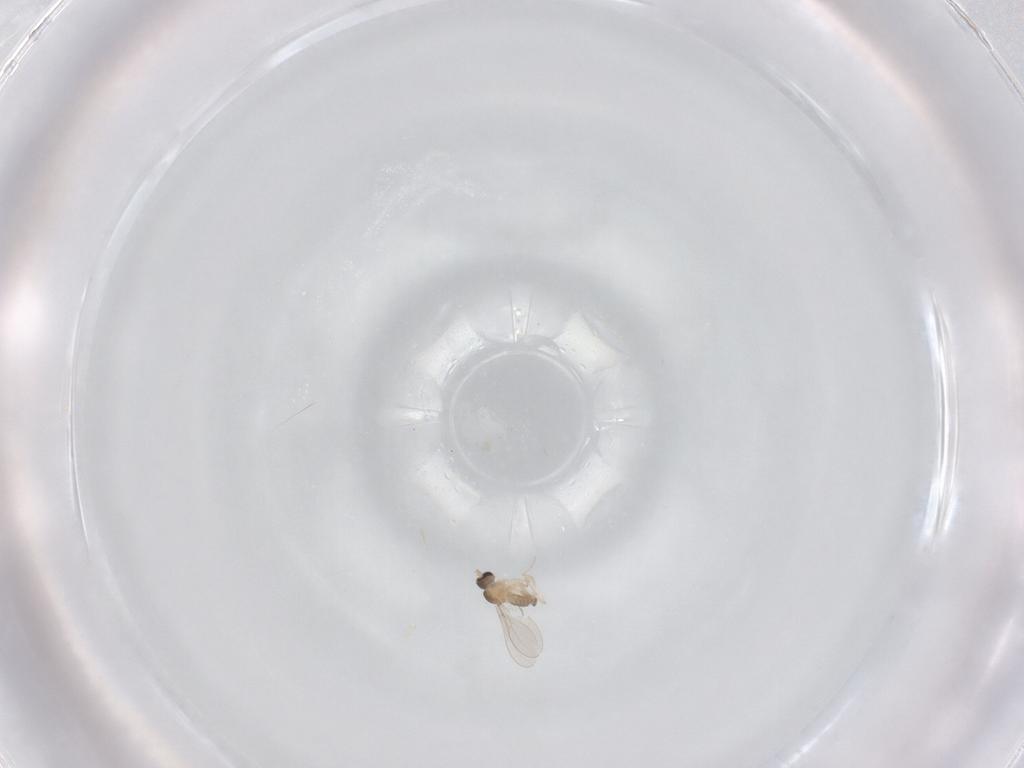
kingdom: Animalia
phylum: Arthropoda
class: Insecta
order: Diptera
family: Cecidomyiidae
